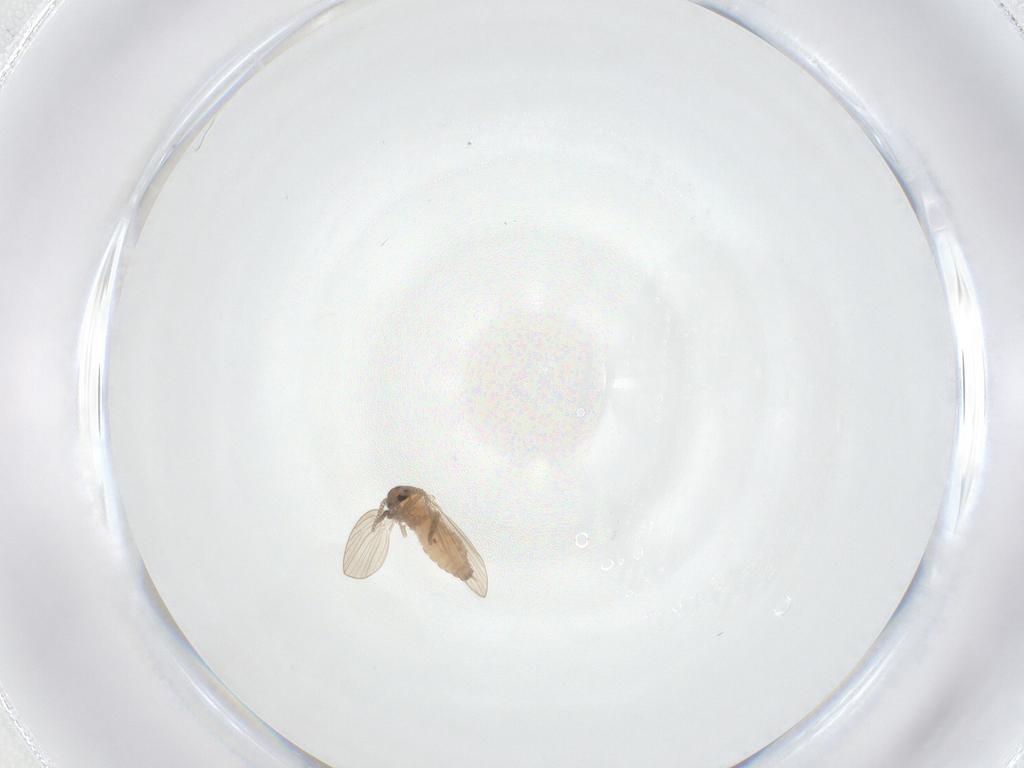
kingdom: Animalia
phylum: Arthropoda
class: Insecta
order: Diptera
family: Psychodidae
